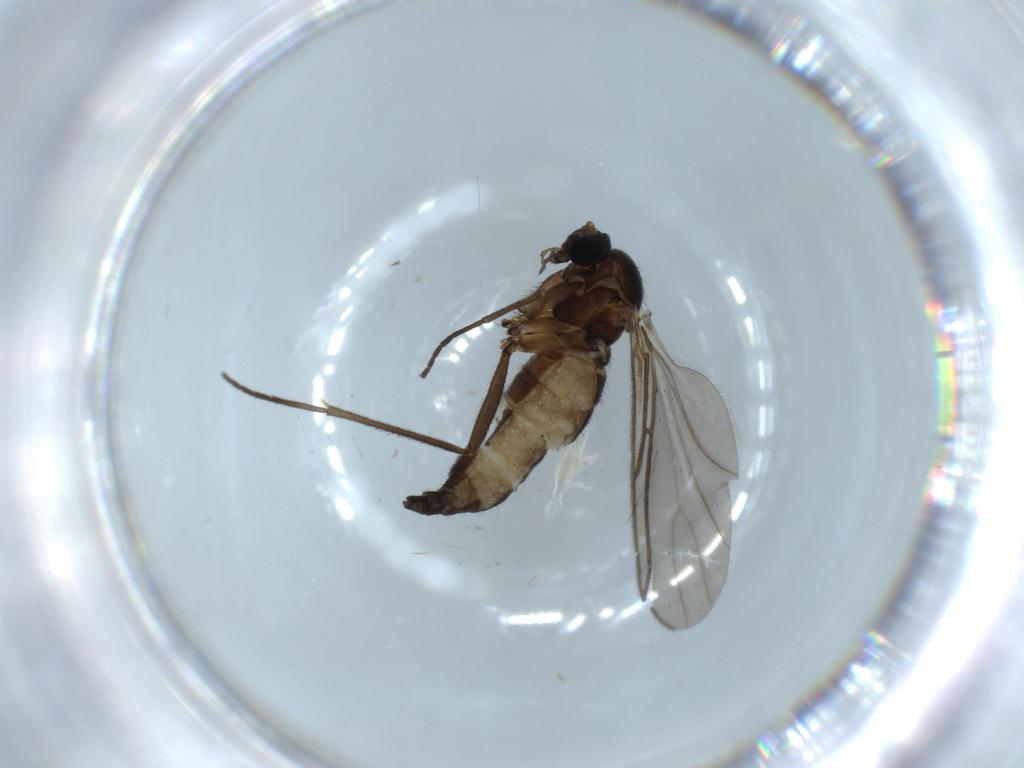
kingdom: Animalia
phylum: Arthropoda
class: Insecta
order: Diptera
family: Sciaridae
